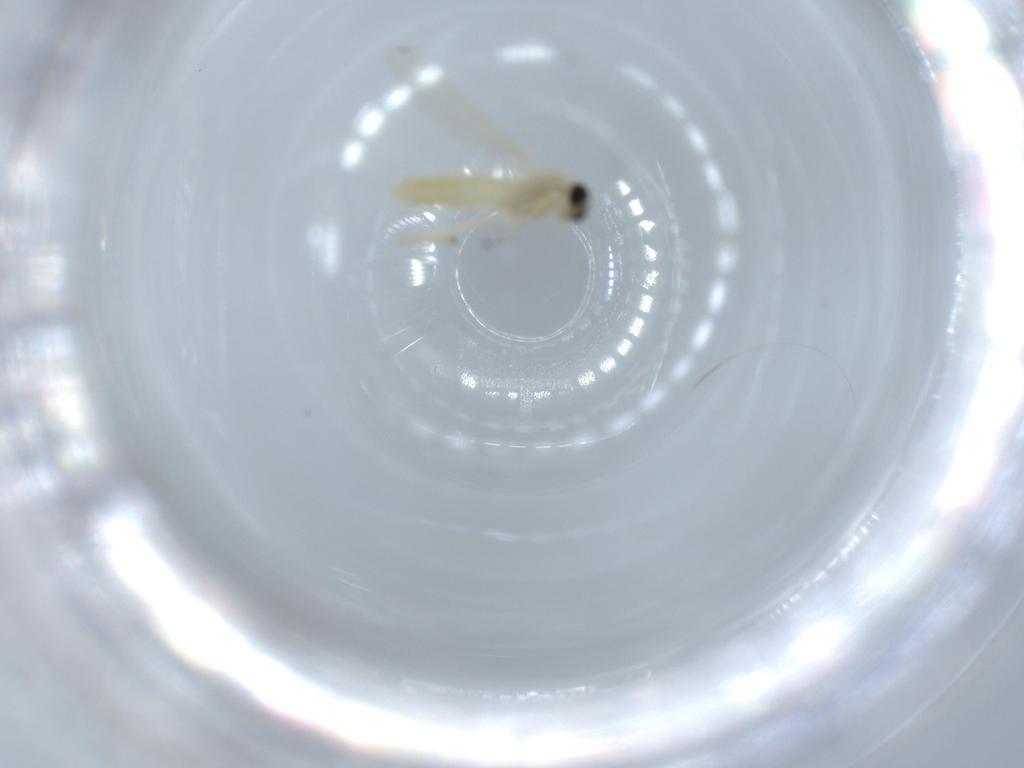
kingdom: Animalia
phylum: Arthropoda
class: Insecta
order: Diptera
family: Chironomidae
